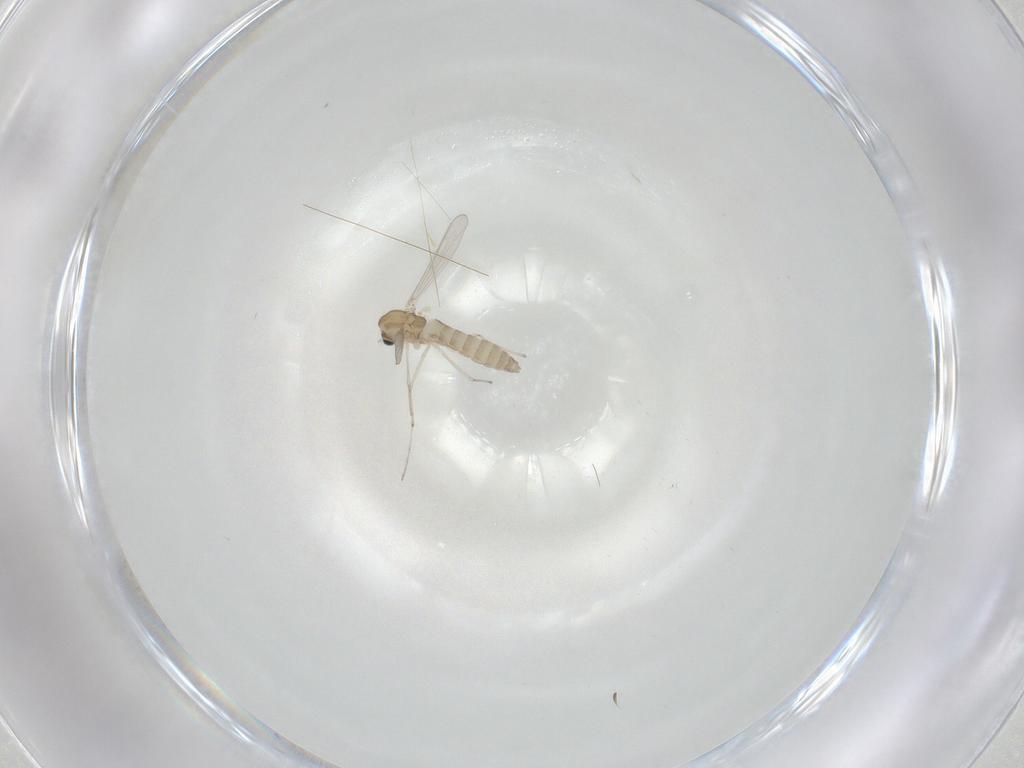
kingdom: Animalia
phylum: Arthropoda
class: Insecta
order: Diptera
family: Chironomidae
